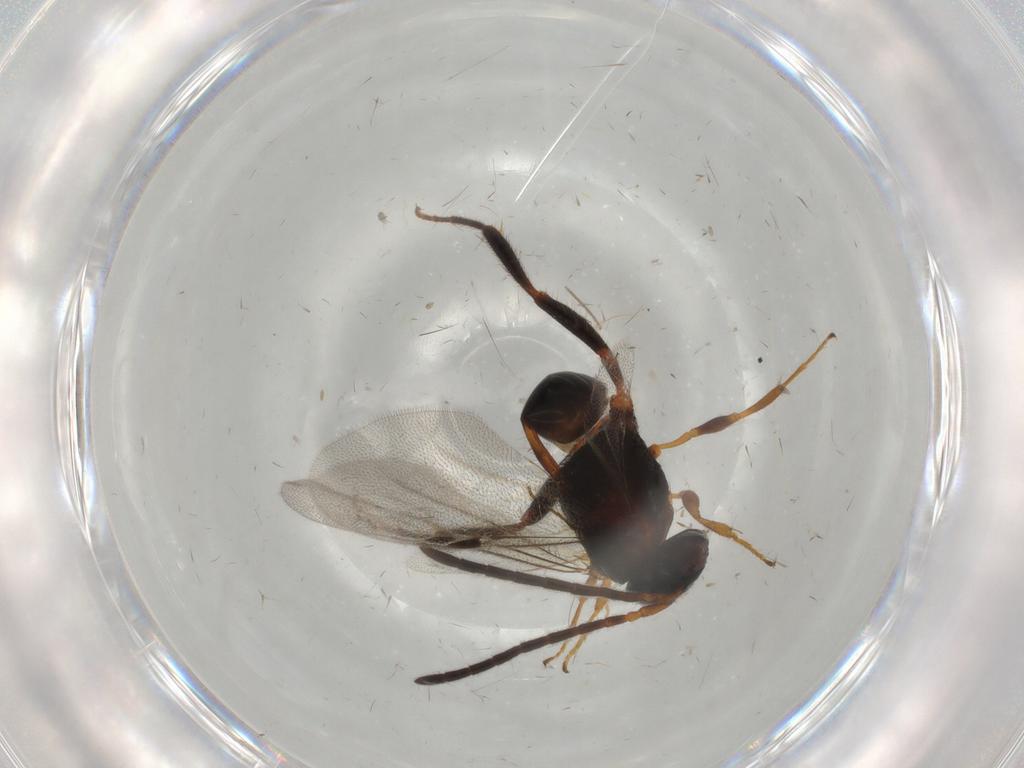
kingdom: Animalia
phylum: Arthropoda
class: Insecta
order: Hymenoptera
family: Evaniidae
